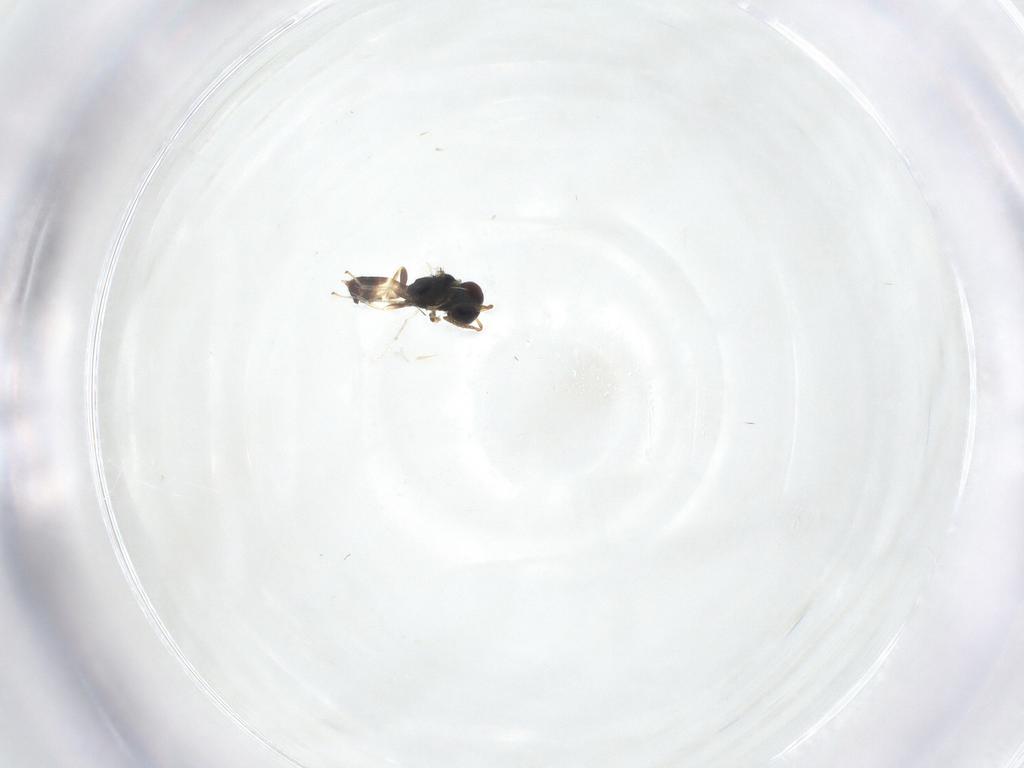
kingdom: Animalia
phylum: Arthropoda
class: Insecta
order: Hymenoptera
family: Pteromalidae
